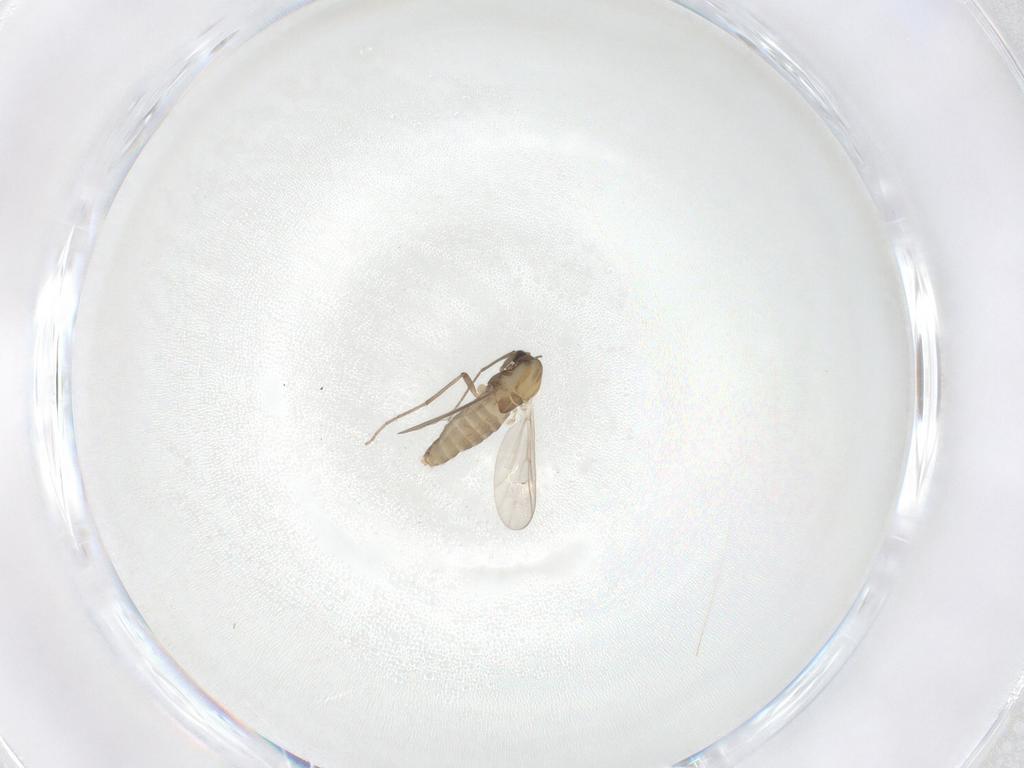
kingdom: Animalia
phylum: Arthropoda
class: Insecta
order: Diptera
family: Chironomidae
